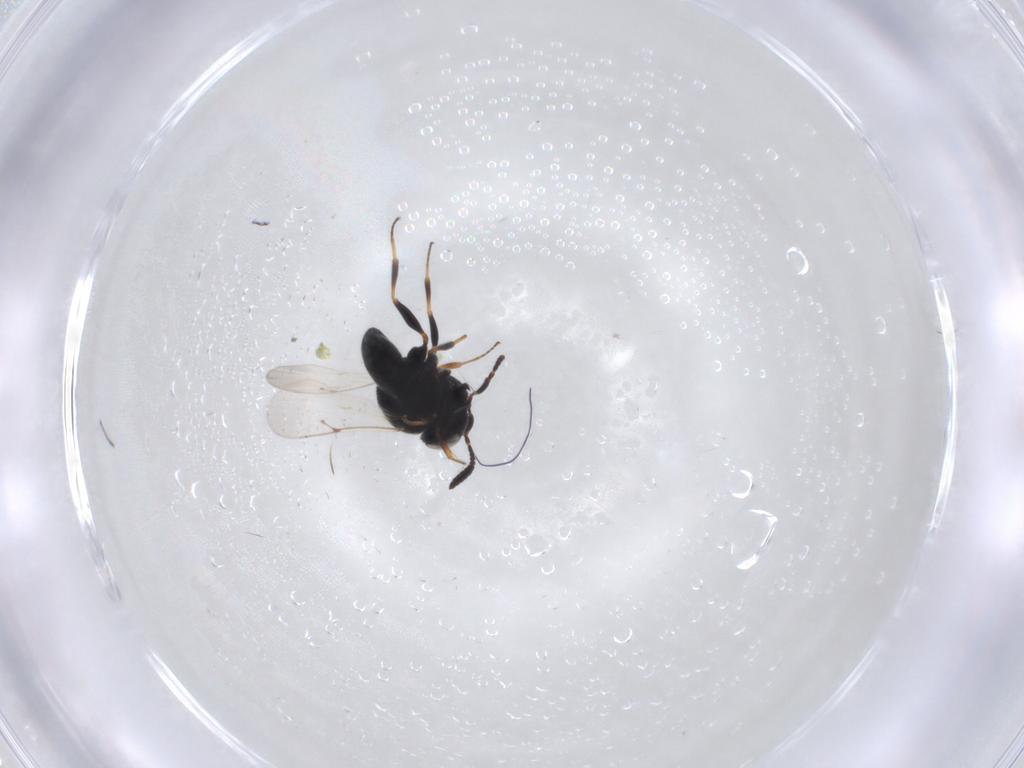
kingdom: Animalia
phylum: Arthropoda
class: Insecta
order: Hymenoptera
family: Scelionidae
